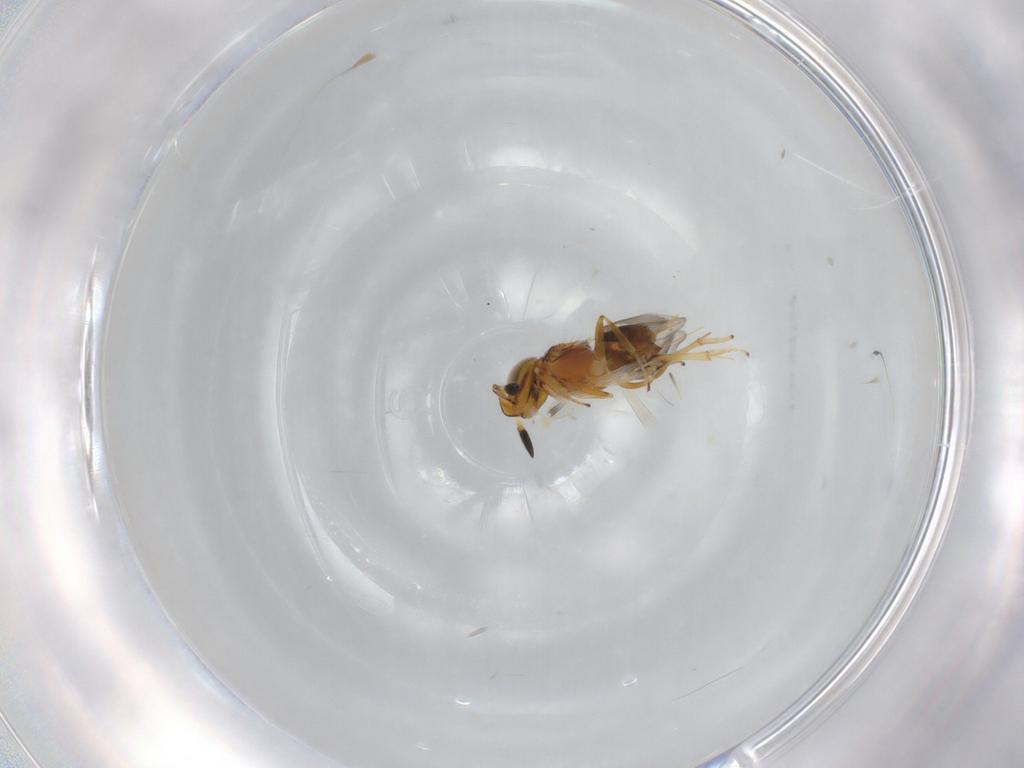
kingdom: Animalia
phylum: Arthropoda
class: Insecta
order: Hymenoptera
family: Encyrtidae
